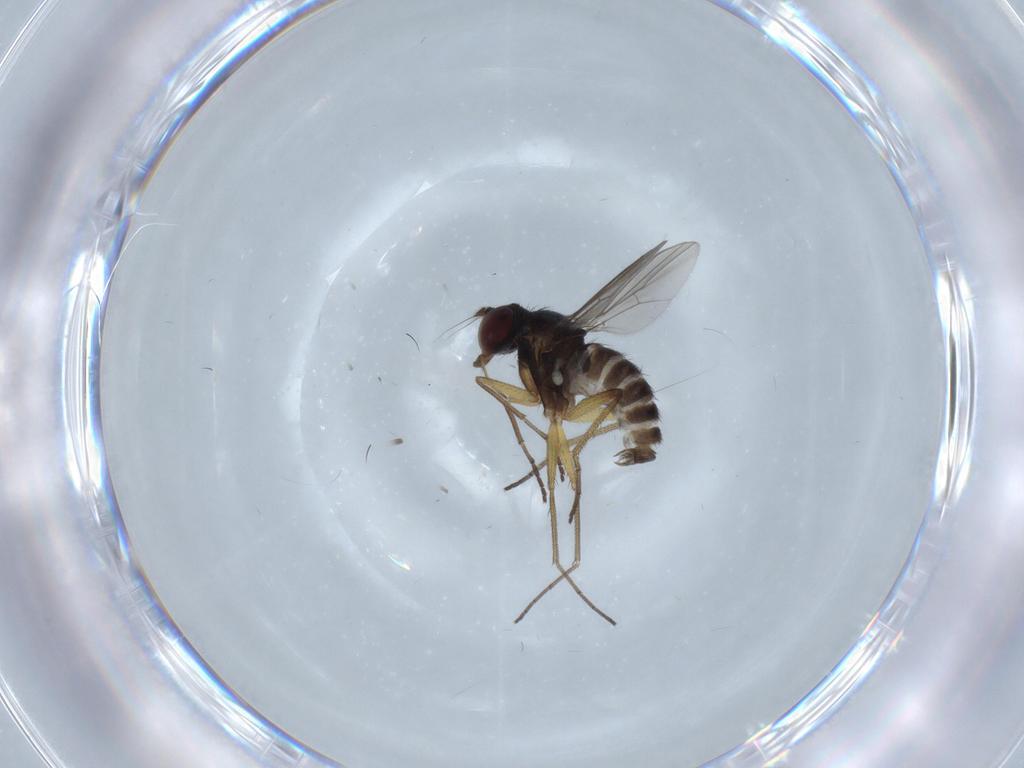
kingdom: Animalia
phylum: Arthropoda
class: Insecta
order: Diptera
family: Dolichopodidae
